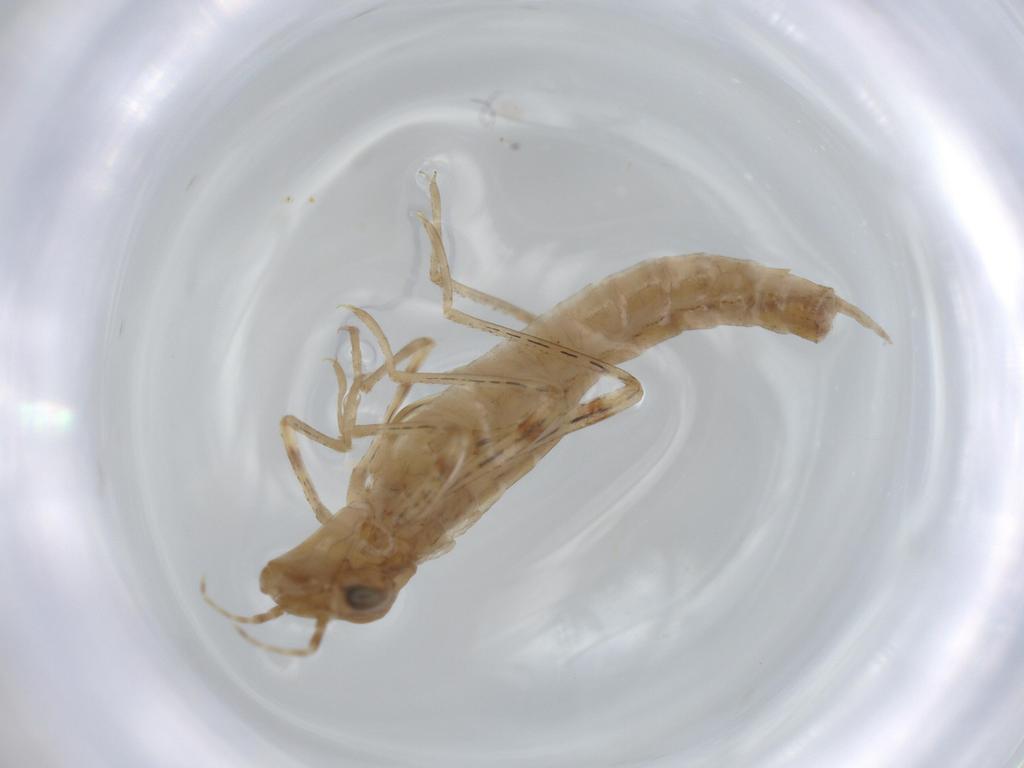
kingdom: Animalia
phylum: Arthropoda
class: Insecta
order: Odonata
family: Coenagrionidae
